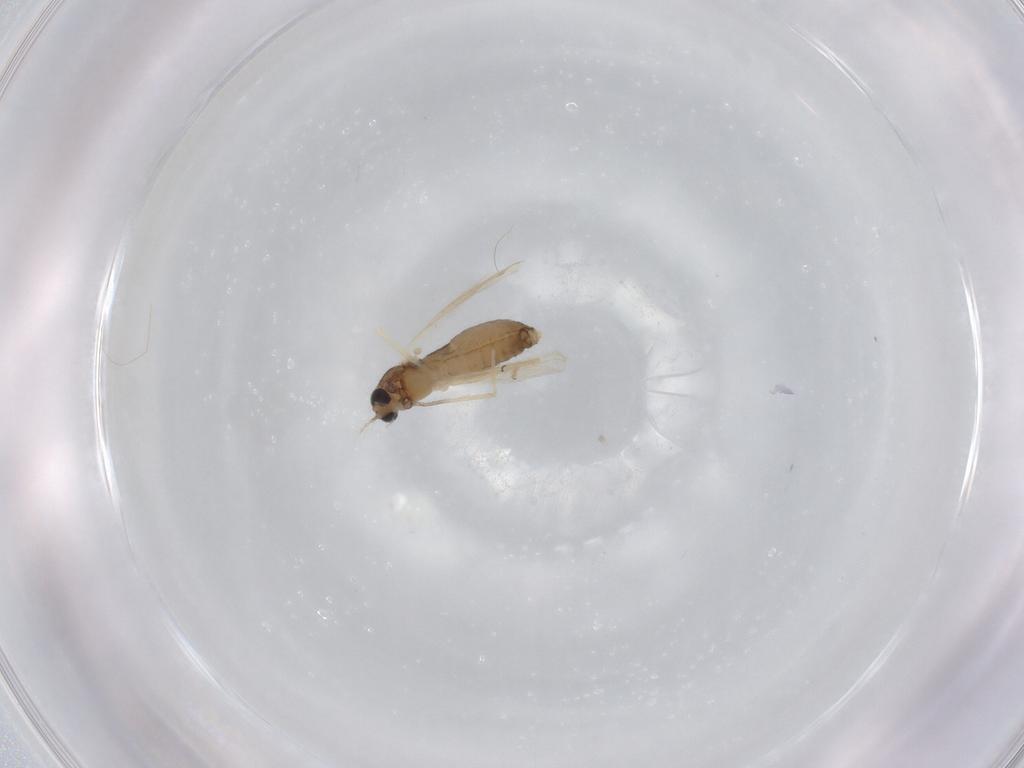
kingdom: Animalia
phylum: Arthropoda
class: Insecta
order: Diptera
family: Chironomidae
